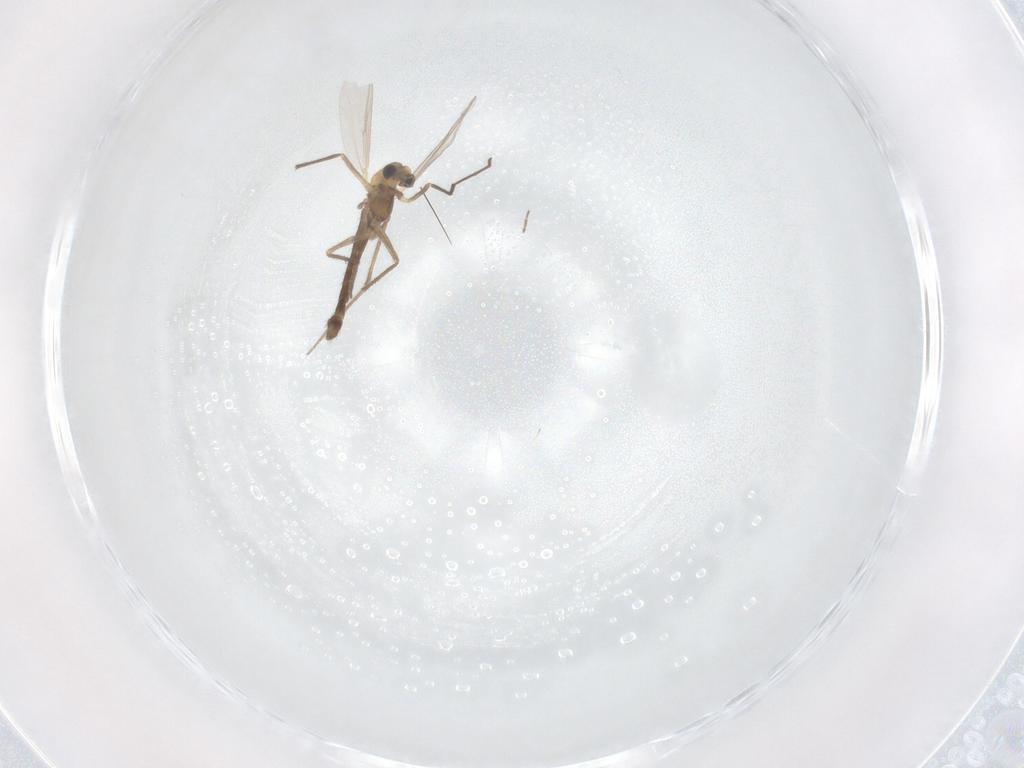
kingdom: Animalia
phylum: Arthropoda
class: Insecta
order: Diptera
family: Chironomidae
